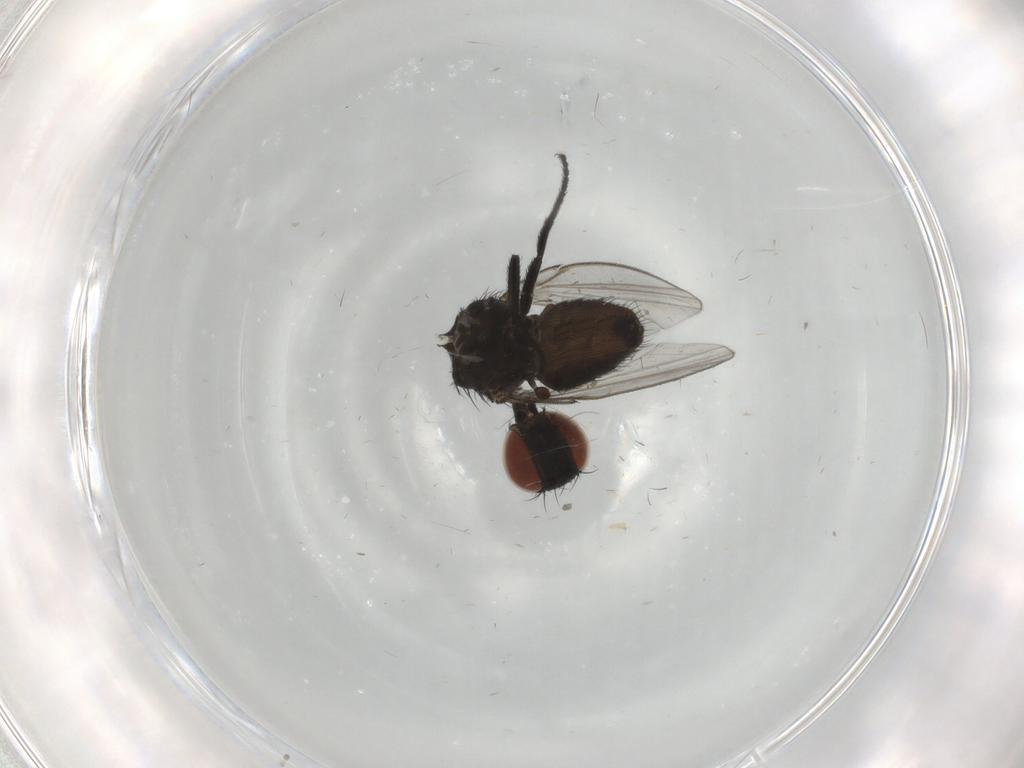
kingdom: Animalia
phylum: Arthropoda
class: Insecta
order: Diptera
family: Milichiidae
